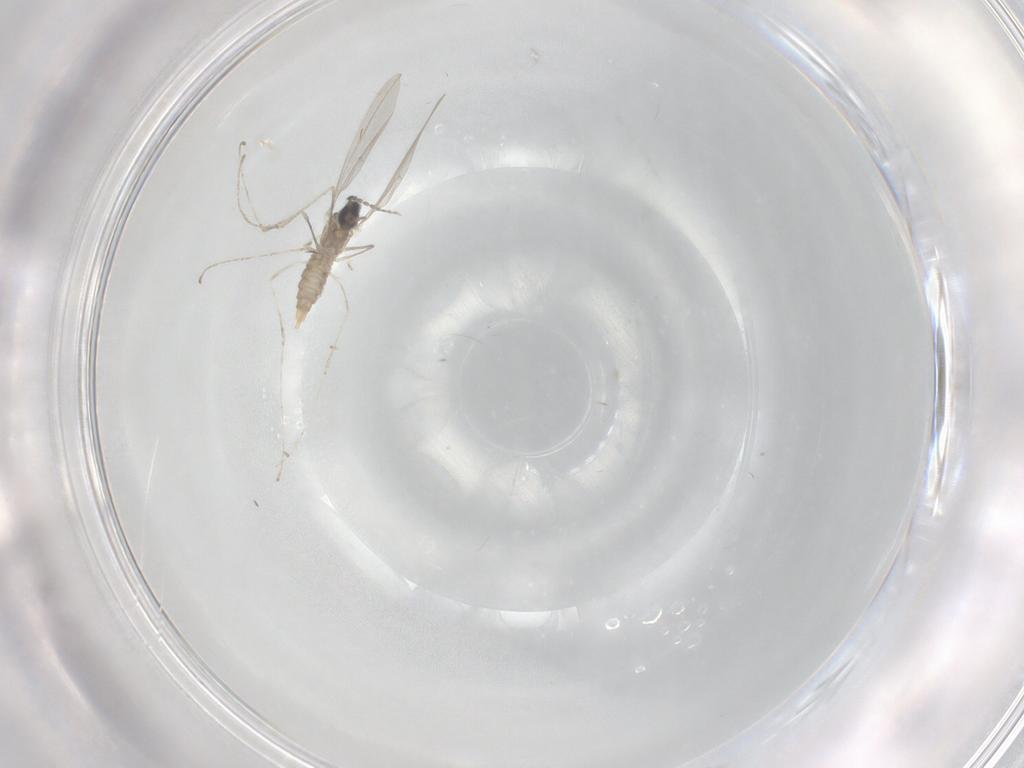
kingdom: Animalia
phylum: Arthropoda
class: Insecta
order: Diptera
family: Cecidomyiidae
